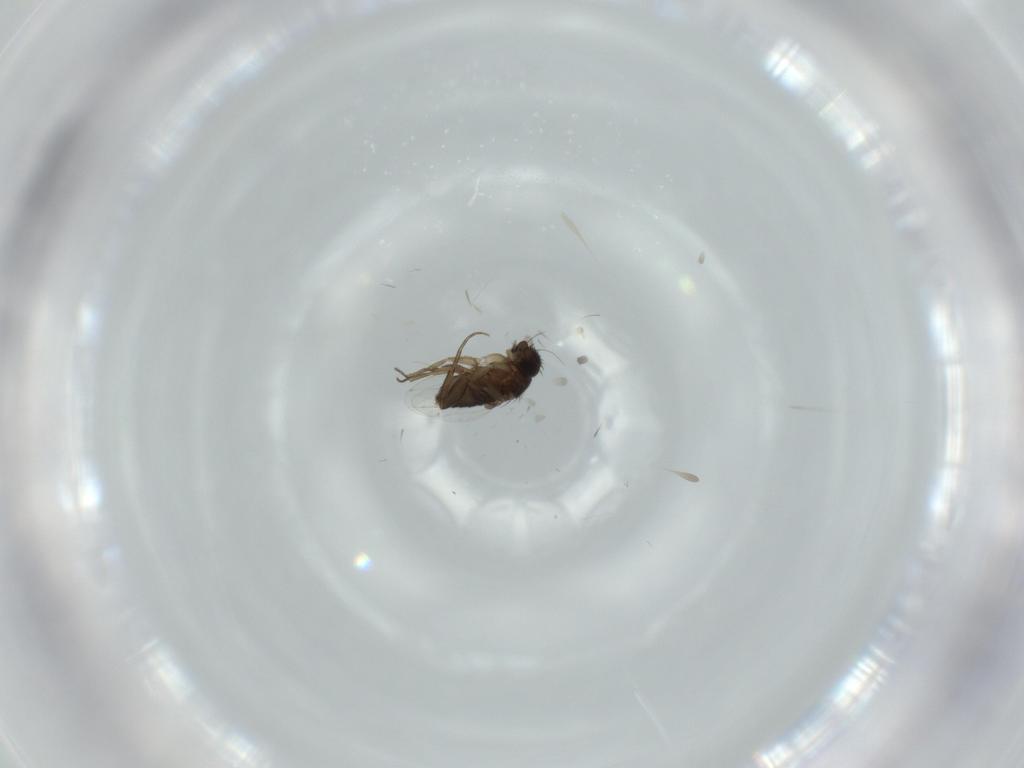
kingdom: Animalia
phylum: Arthropoda
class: Insecta
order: Diptera
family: Phoridae
